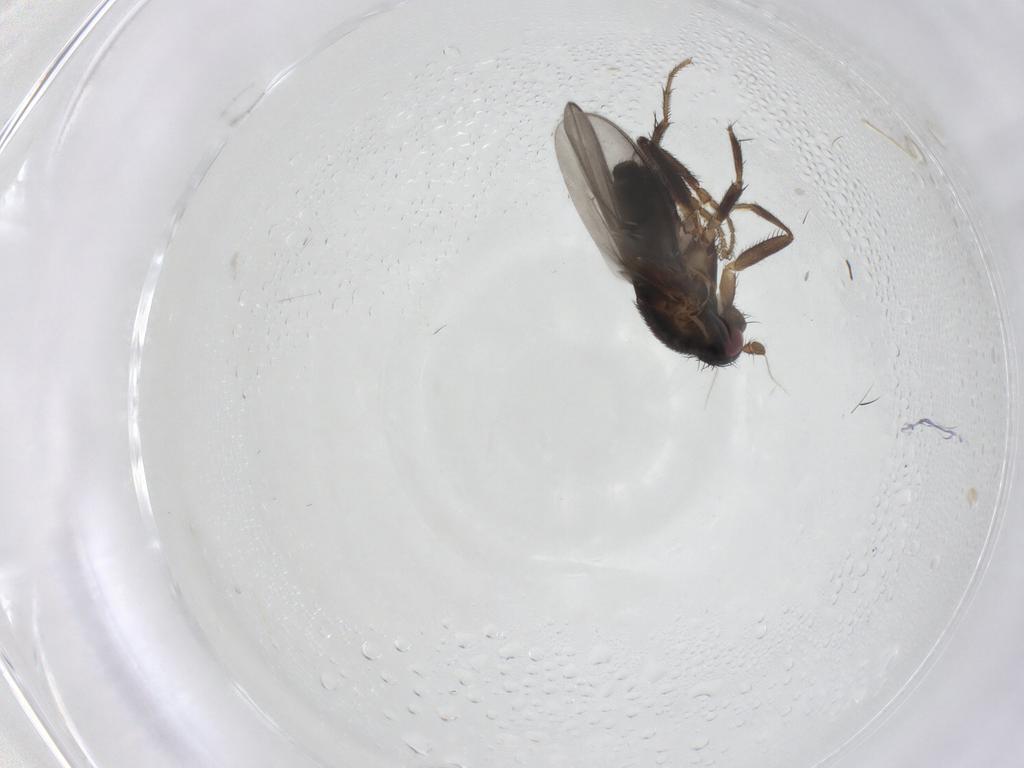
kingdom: Animalia
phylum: Arthropoda
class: Insecta
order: Diptera
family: Sphaeroceridae
